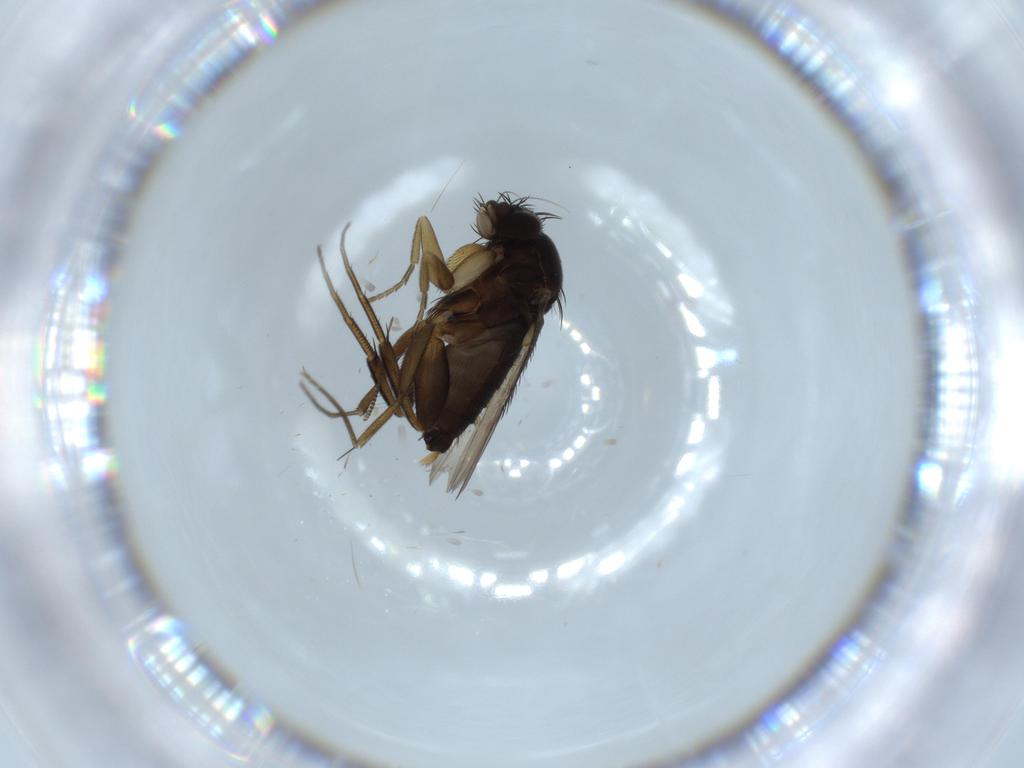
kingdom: Animalia
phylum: Arthropoda
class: Insecta
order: Diptera
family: Phoridae
